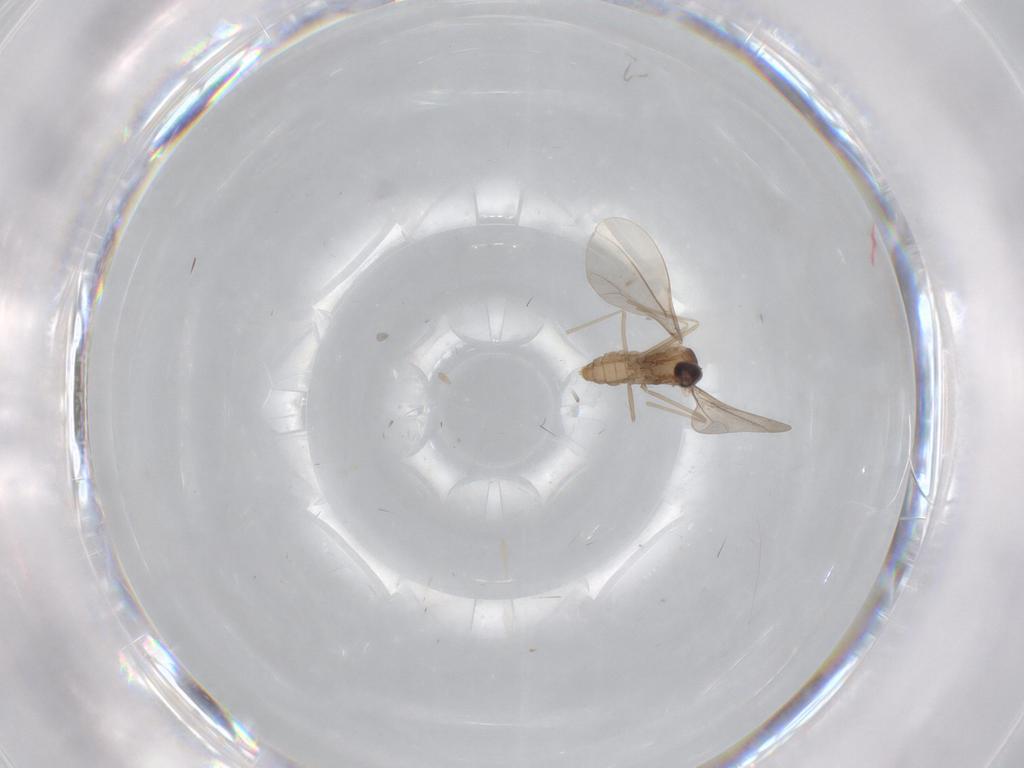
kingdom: Animalia
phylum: Arthropoda
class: Insecta
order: Diptera
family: Cecidomyiidae
